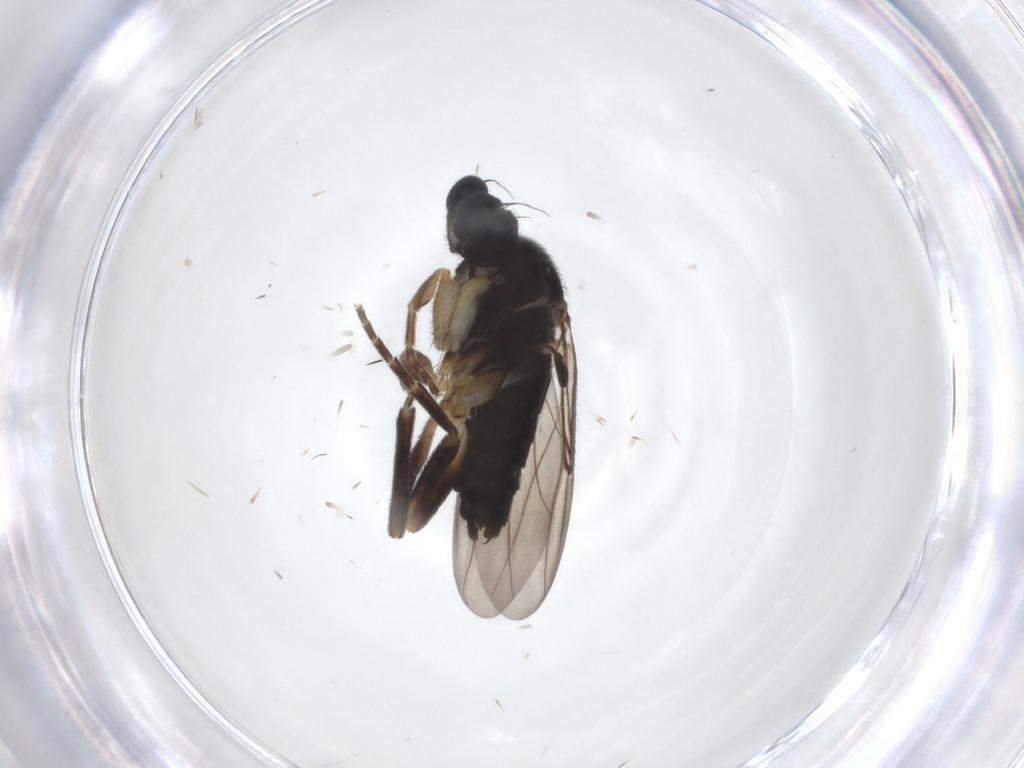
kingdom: Animalia
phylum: Arthropoda
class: Insecta
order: Diptera
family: Phoridae
